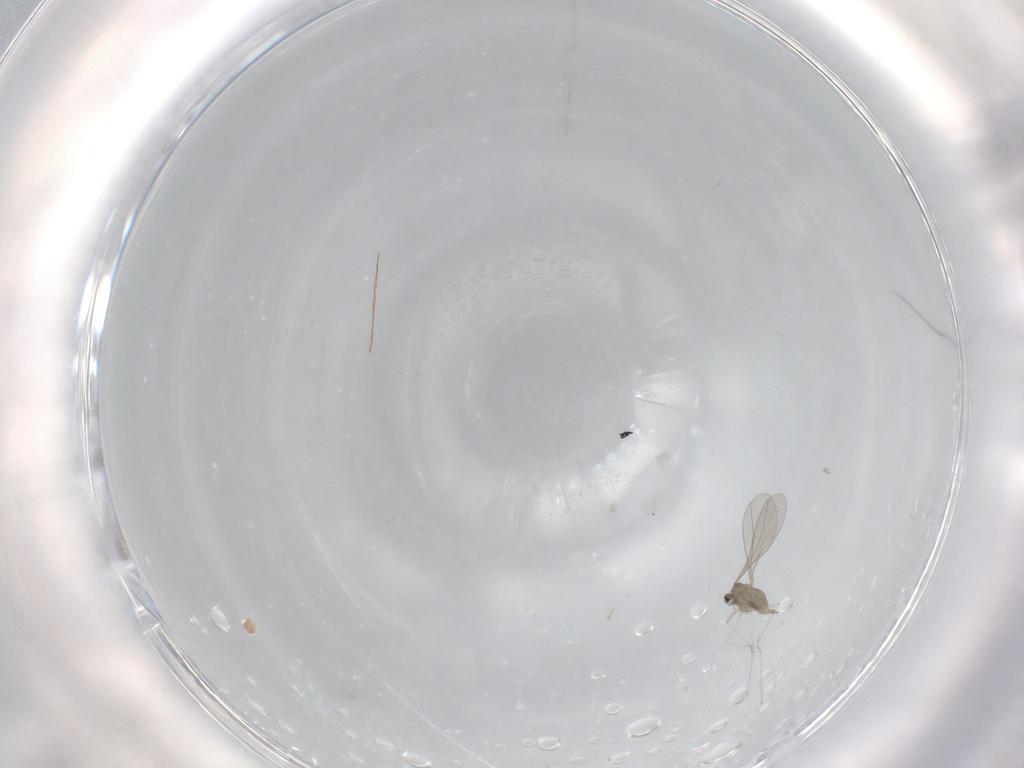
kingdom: Animalia
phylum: Arthropoda
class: Insecta
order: Diptera
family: Cecidomyiidae
